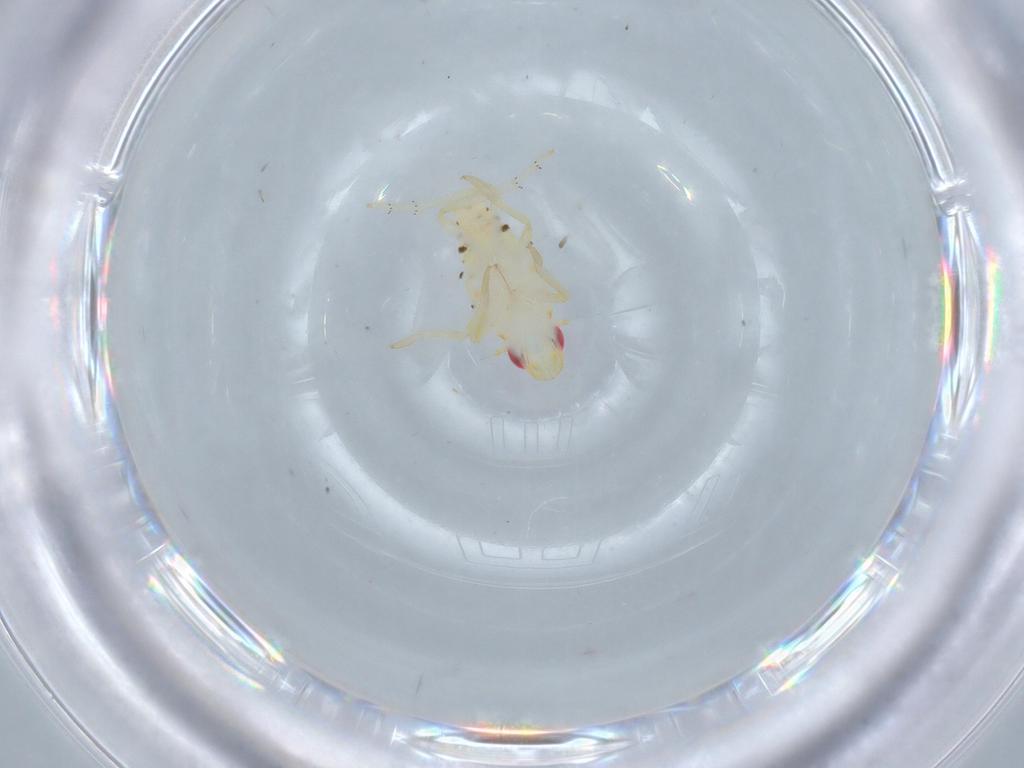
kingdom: Animalia
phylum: Arthropoda
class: Insecta
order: Hemiptera
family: Tropiduchidae
